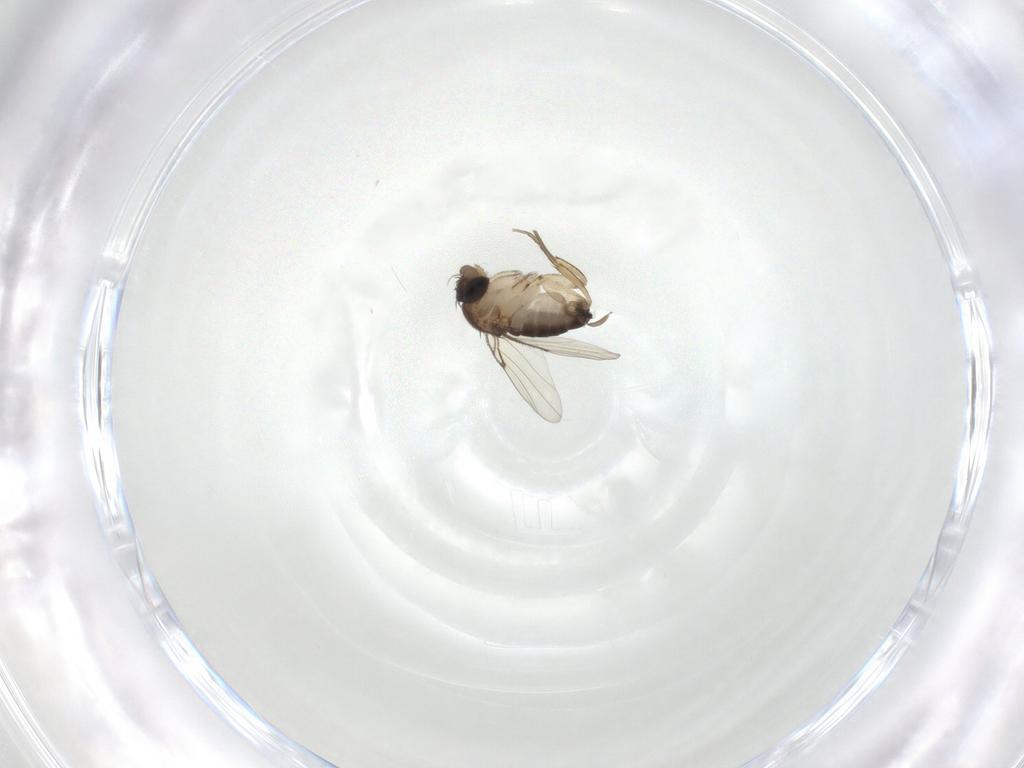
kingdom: Animalia
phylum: Arthropoda
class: Insecta
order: Diptera
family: Phoridae
